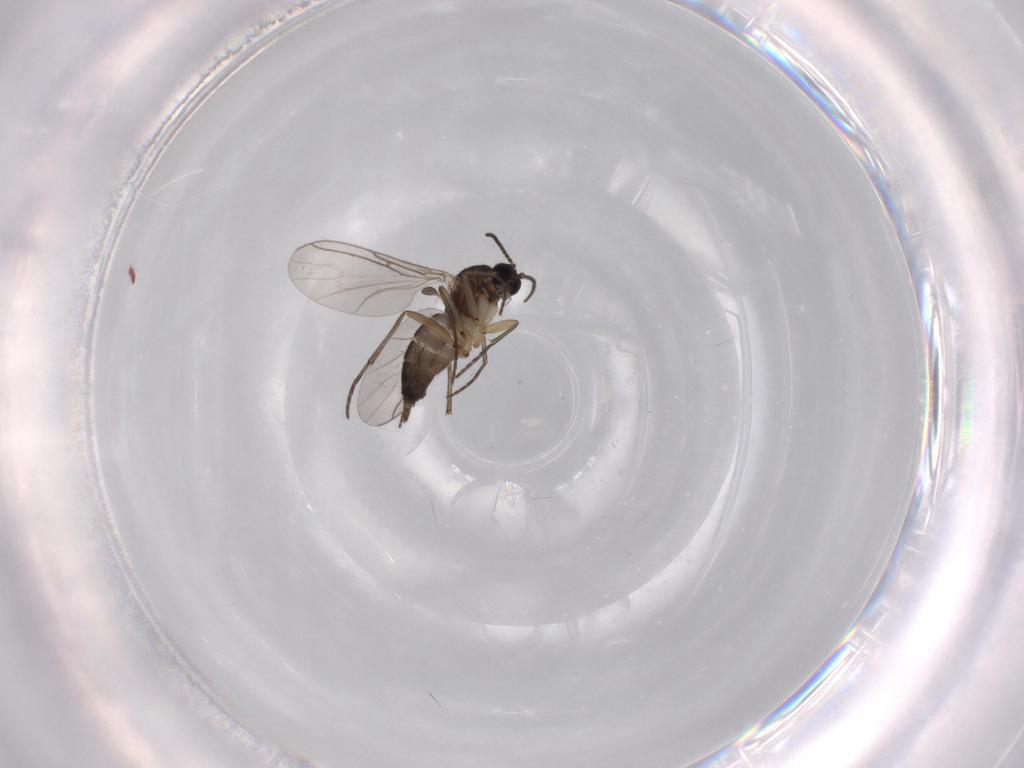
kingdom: Animalia
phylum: Arthropoda
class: Insecta
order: Diptera
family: Sciaridae
